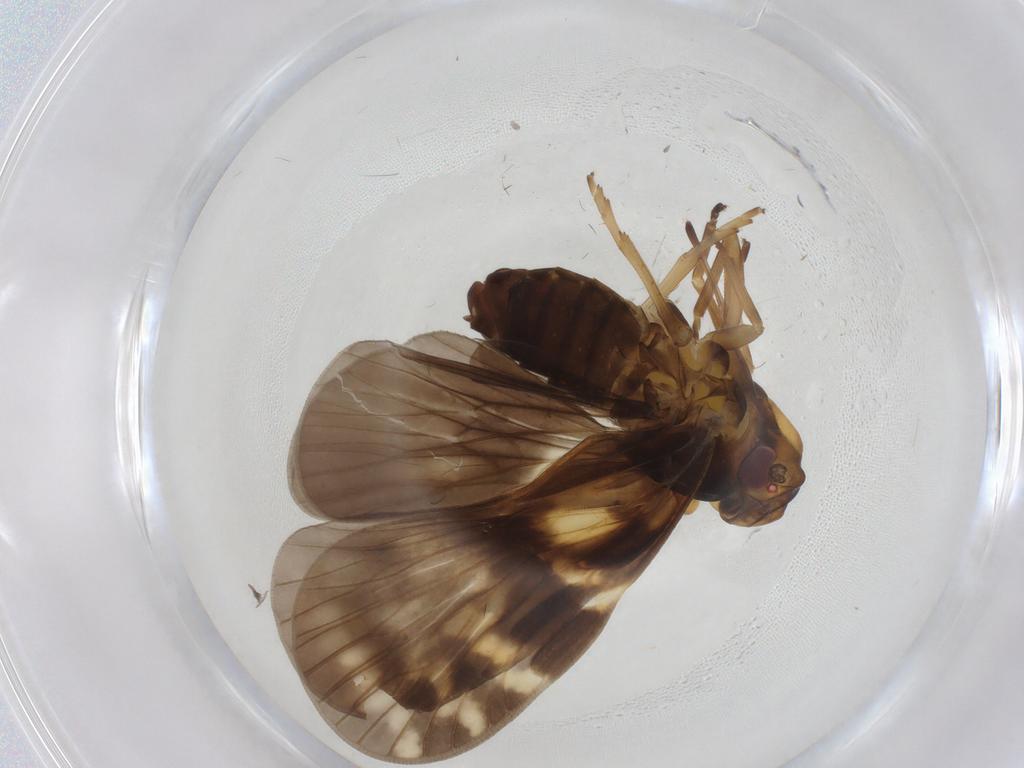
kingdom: Animalia
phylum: Arthropoda
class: Insecta
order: Hemiptera
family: Cixiidae
